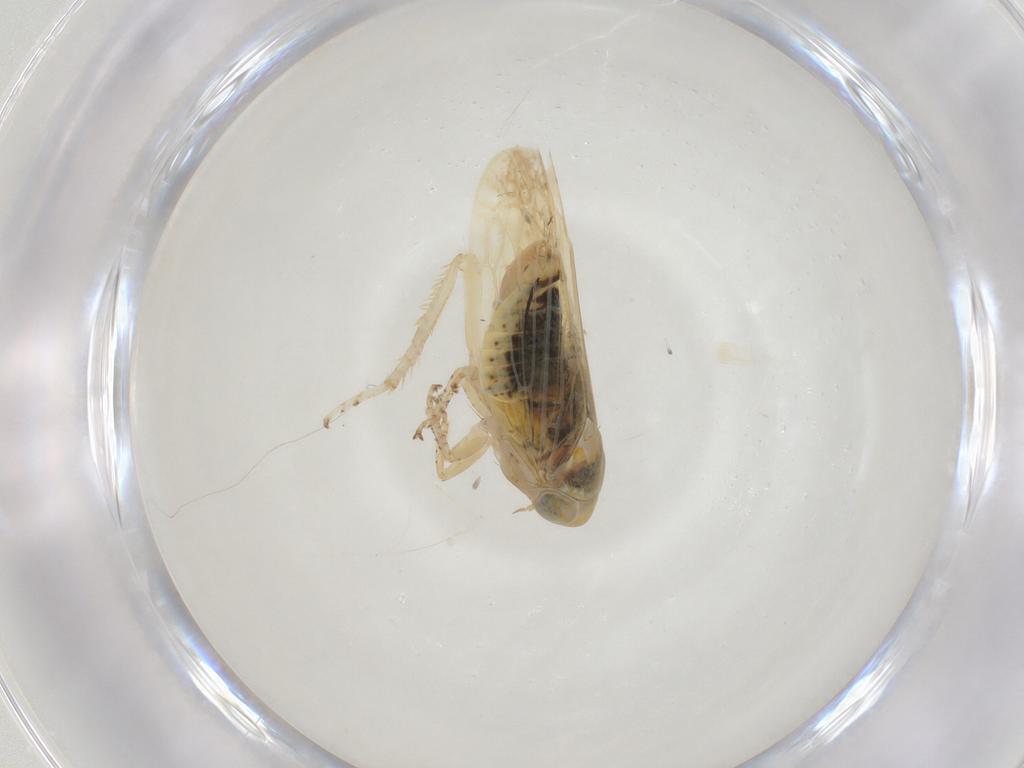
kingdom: Animalia
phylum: Arthropoda
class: Insecta
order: Hemiptera
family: Cicadellidae
